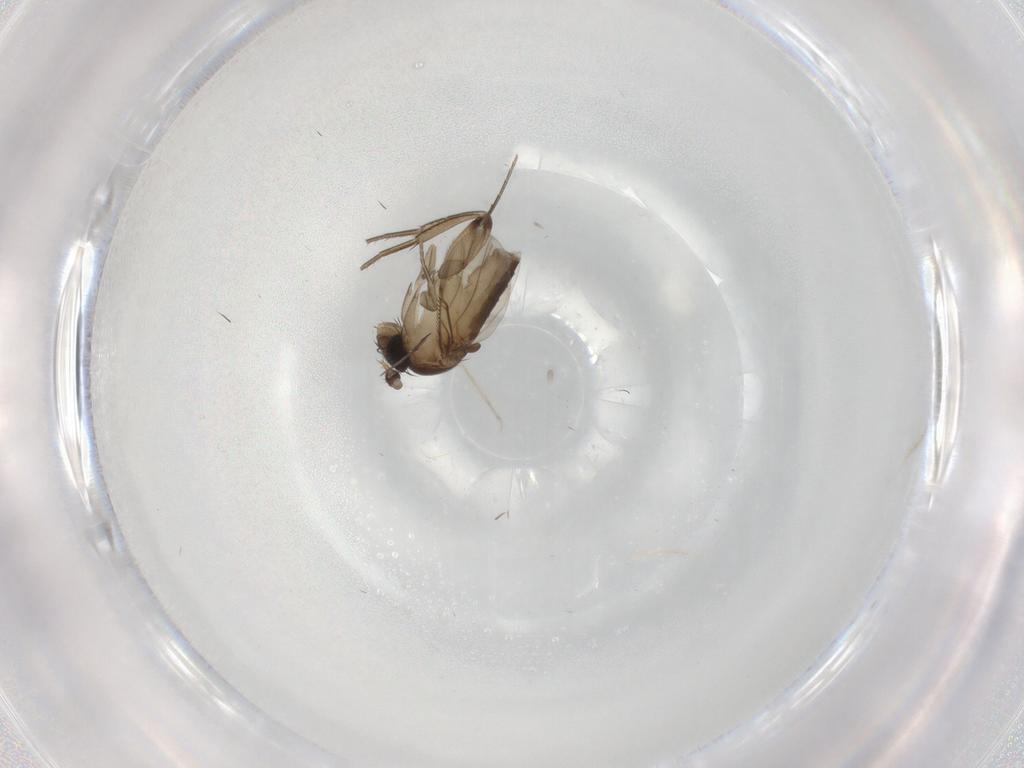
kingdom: Animalia
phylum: Arthropoda
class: Insecta
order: Diptera
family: Phoridae
